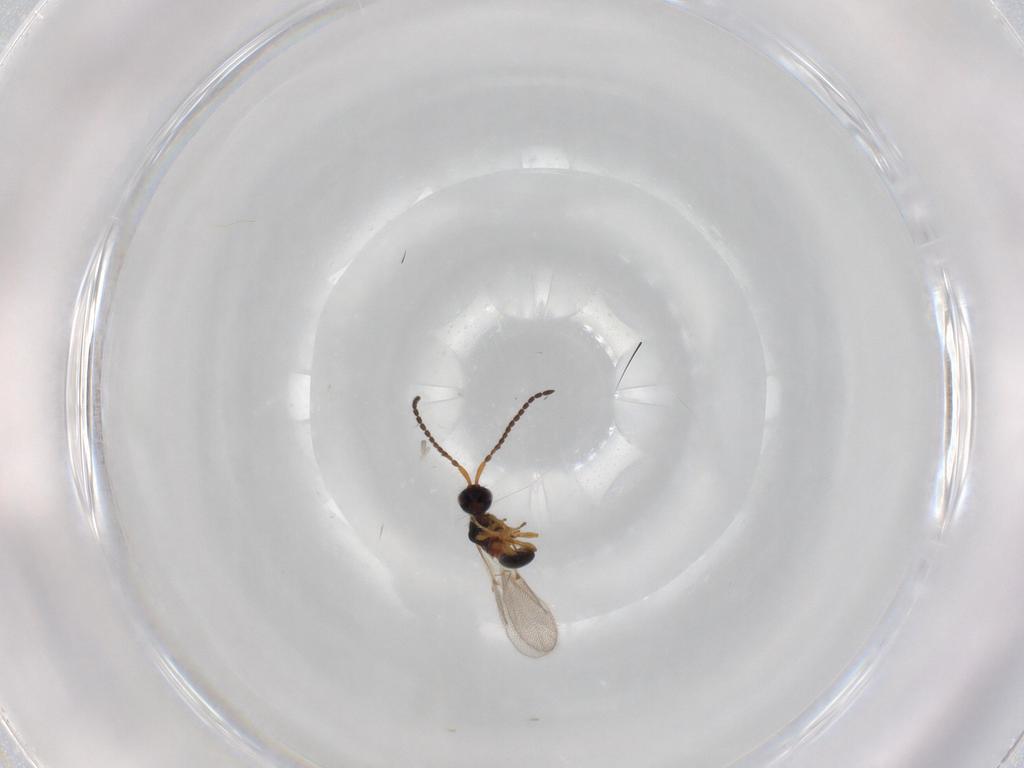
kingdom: Animalia
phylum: Arthropoda
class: Insecta
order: Hymenoptera
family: Diapriidae
